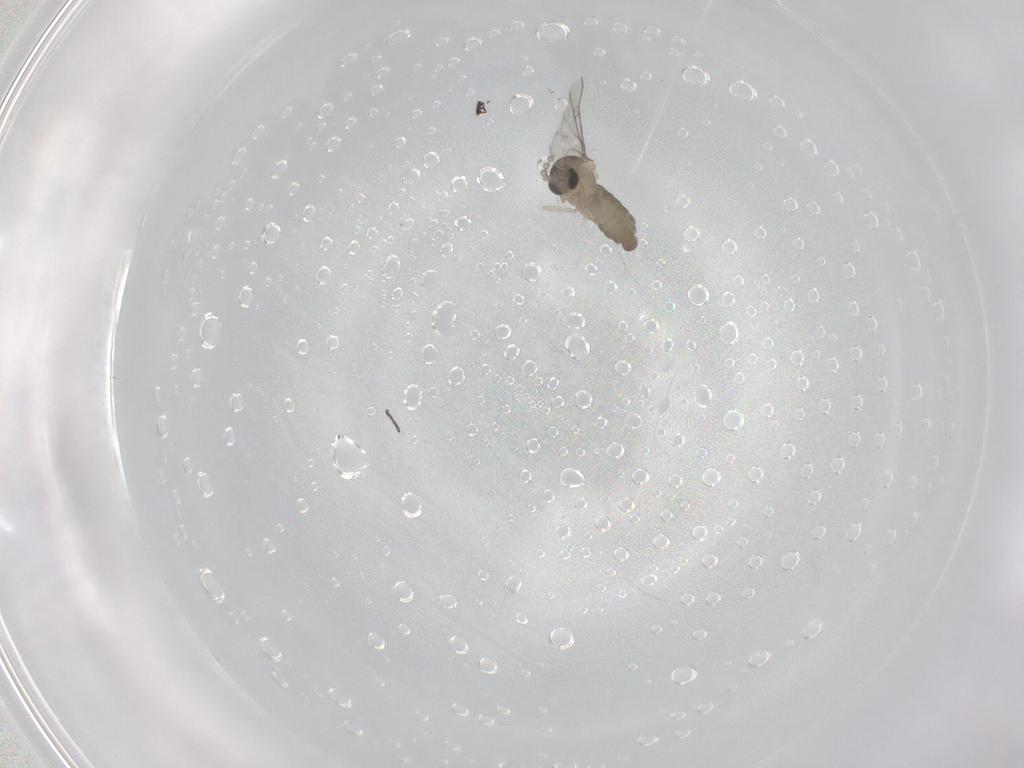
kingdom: Animalia
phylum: Arthropoda
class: Insecta
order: Diptera
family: Cecidomyiidae
